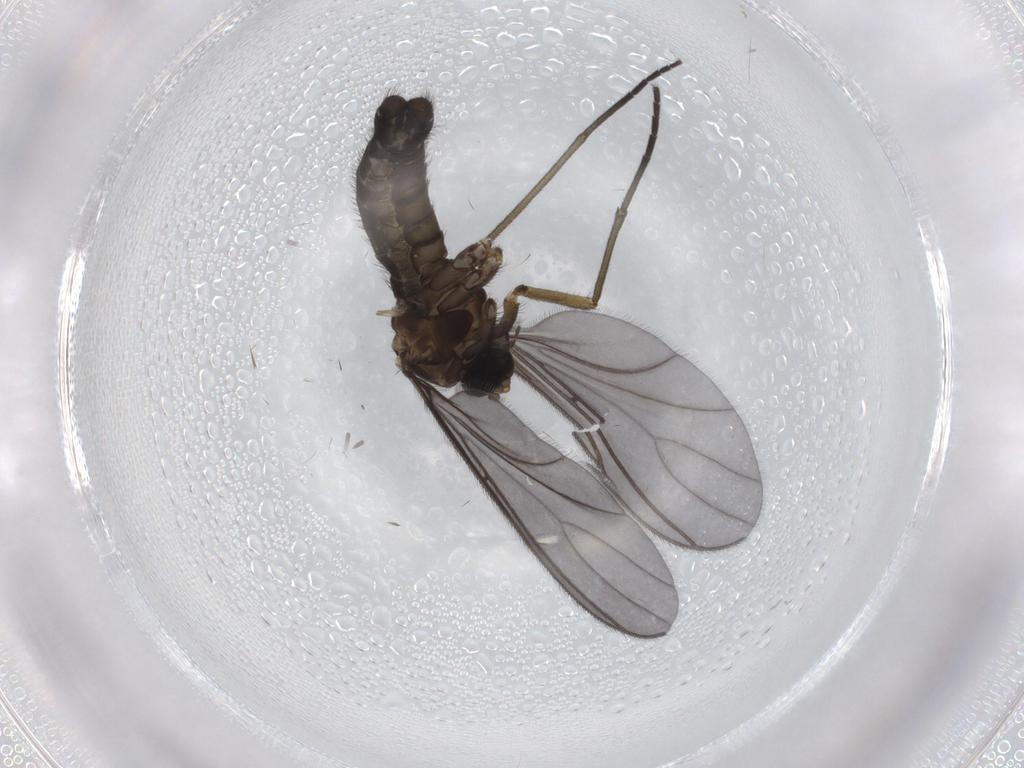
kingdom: Animalia
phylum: Arthropoda
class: Insecta
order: Diptera
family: Sciaridae
